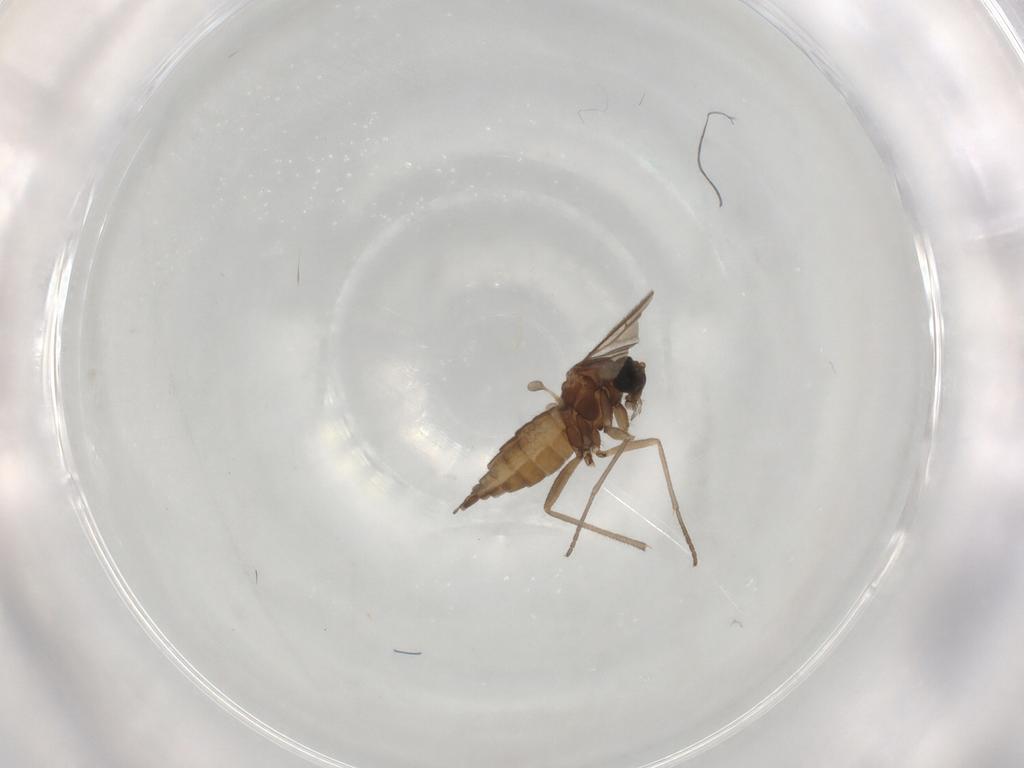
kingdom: Animalia
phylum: Arthropoda
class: Insecta
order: Diptera
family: Sciaridae
